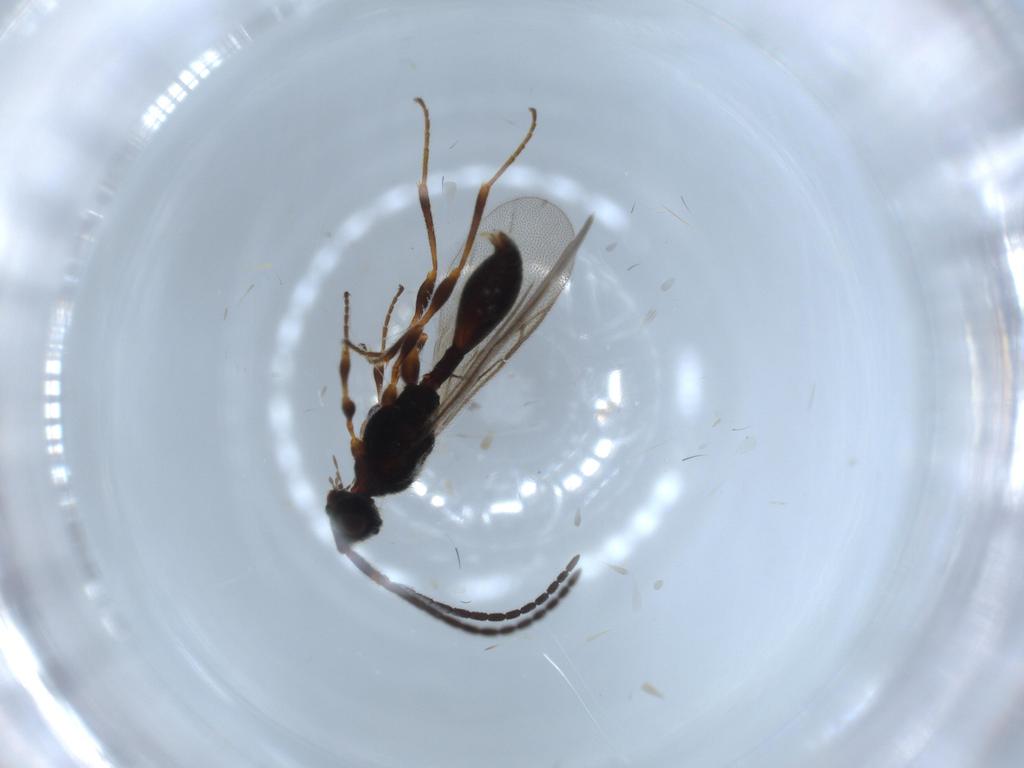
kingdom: Animalia
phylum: Arthropoda
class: Insecta
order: Hymenoptera
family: Diapriidae
